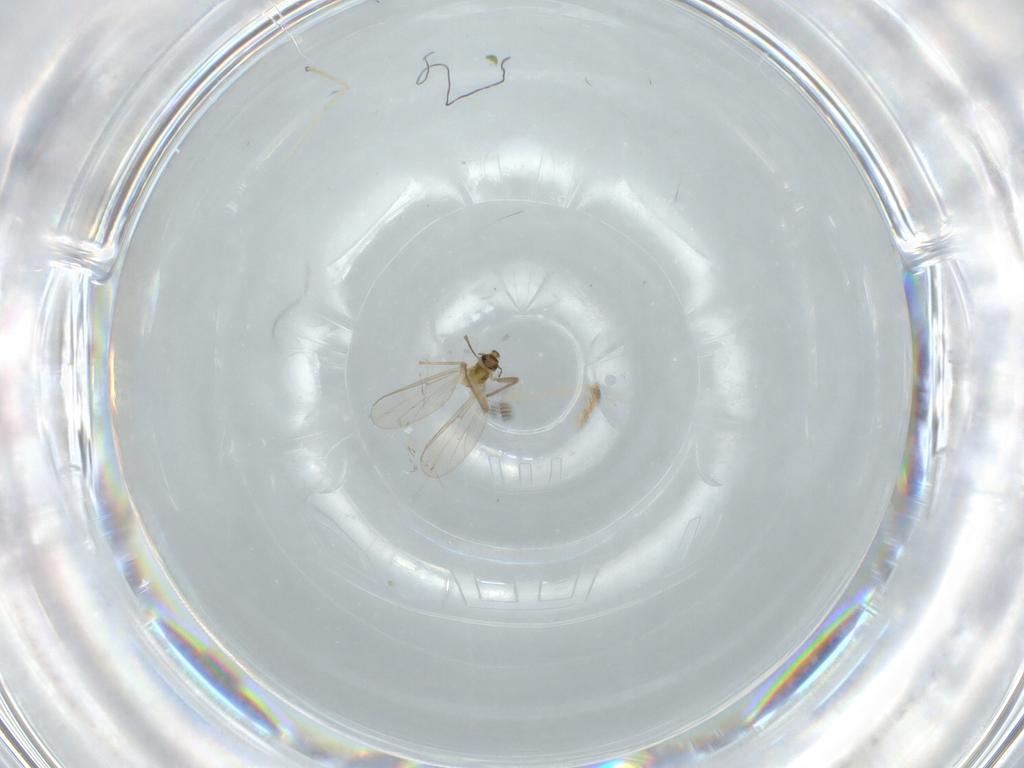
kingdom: Animalia
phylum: Arthropoda
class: Insecta
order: Diptera
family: Chironomidae
